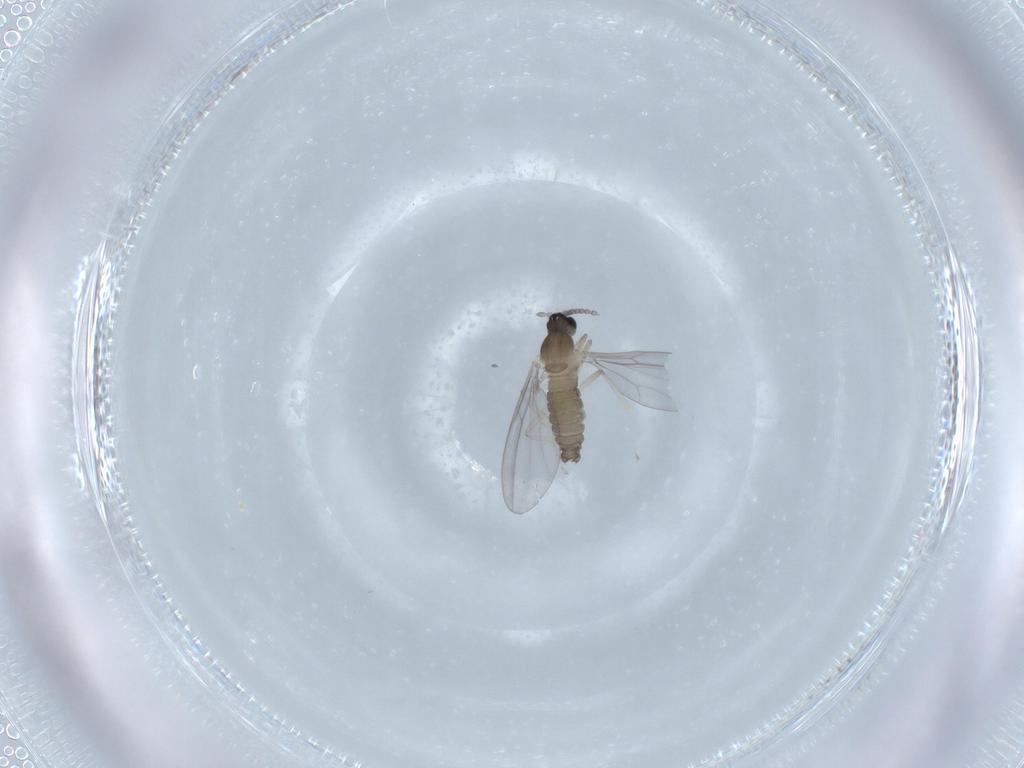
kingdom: Animalia
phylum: Arthropoda
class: Insecta
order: Diptera
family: Cecidomyiidae
